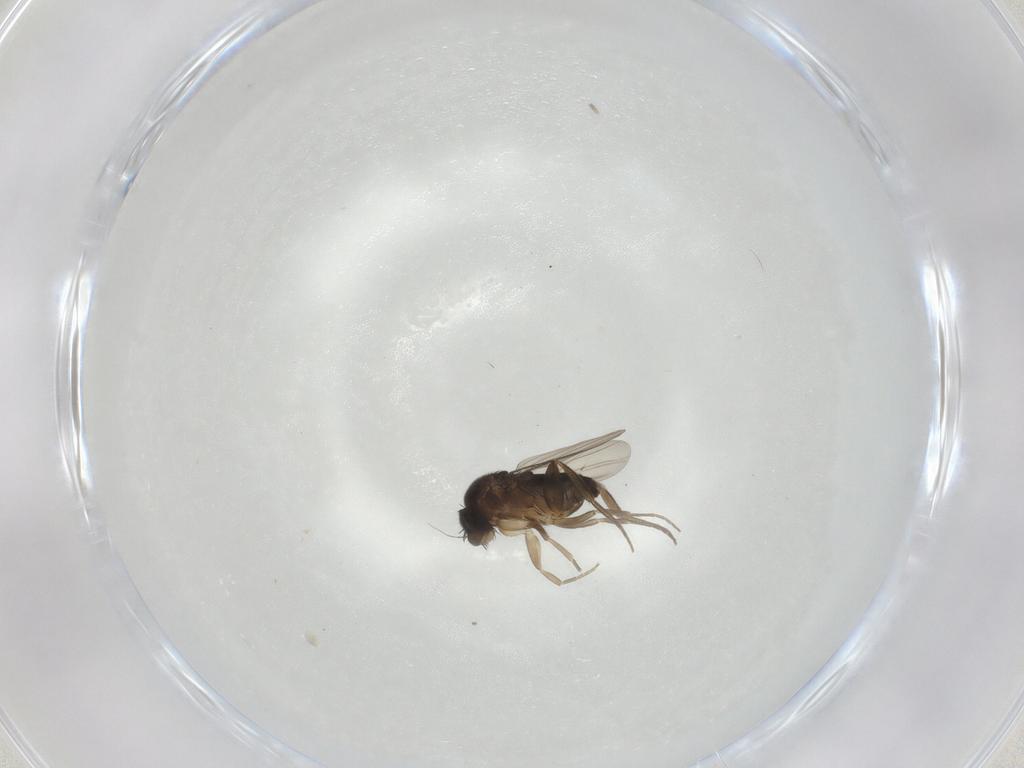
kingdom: Animalia
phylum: Arthropoda
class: Insecta
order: Diptera
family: Phoridae
